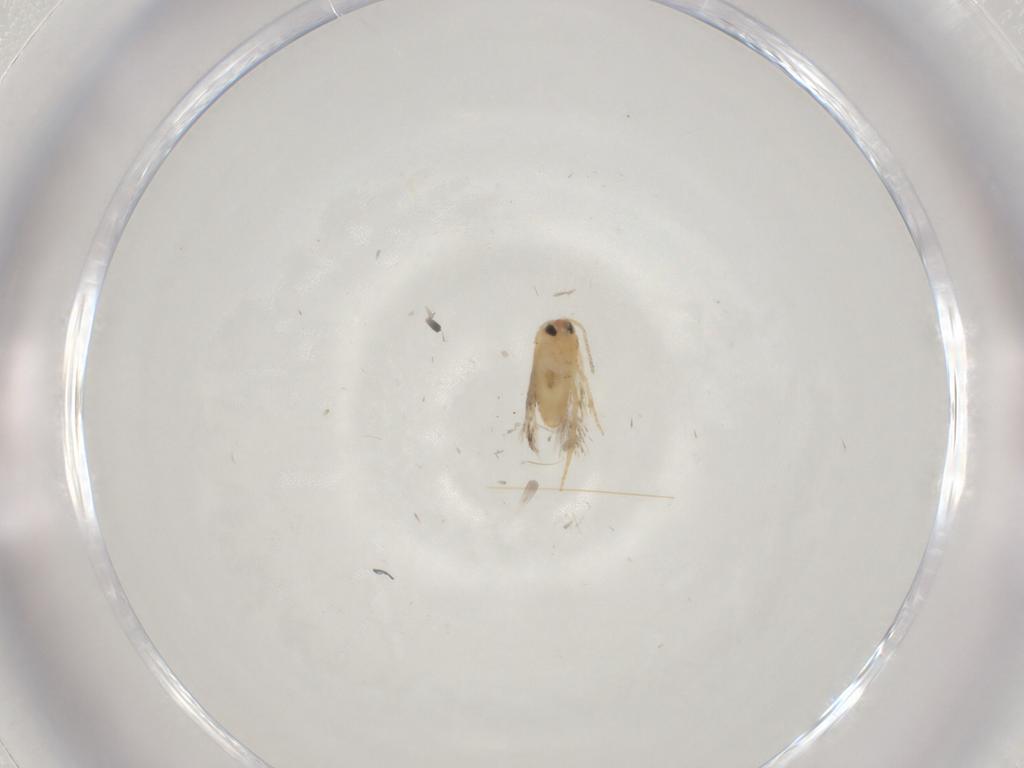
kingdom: Animalia
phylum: Arthropoda
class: Insecta
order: Lepidoptera
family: Nepticulidae
